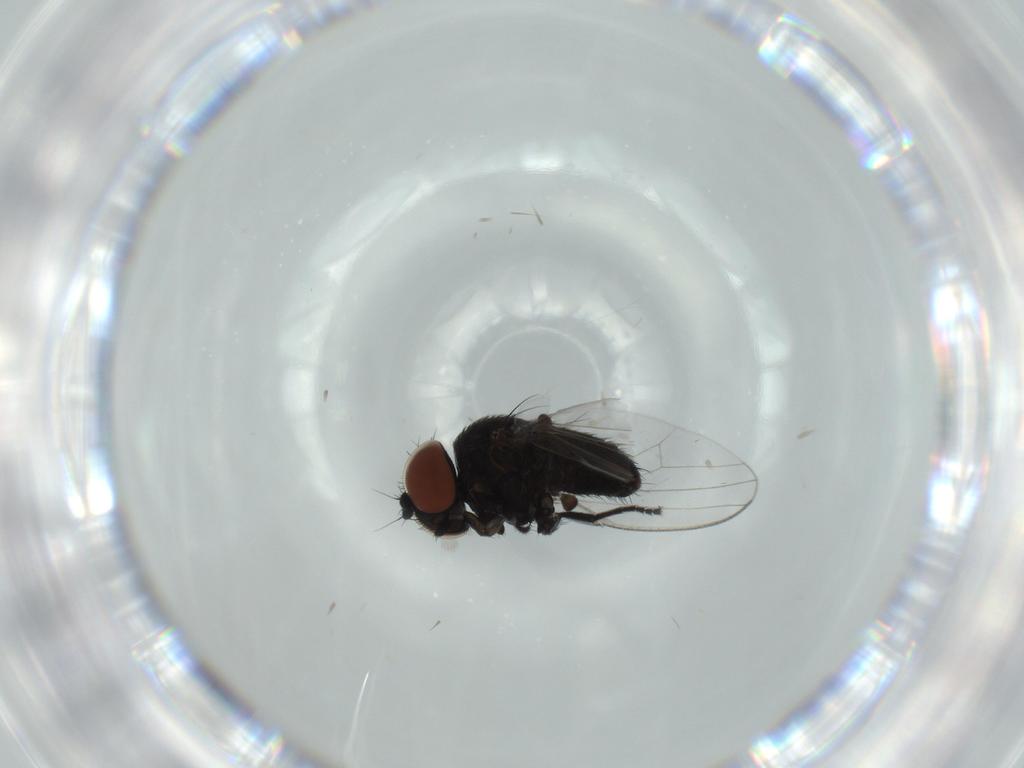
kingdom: Animalia
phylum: Arthropoda
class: Insecta
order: Diptera
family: Milichiidae
